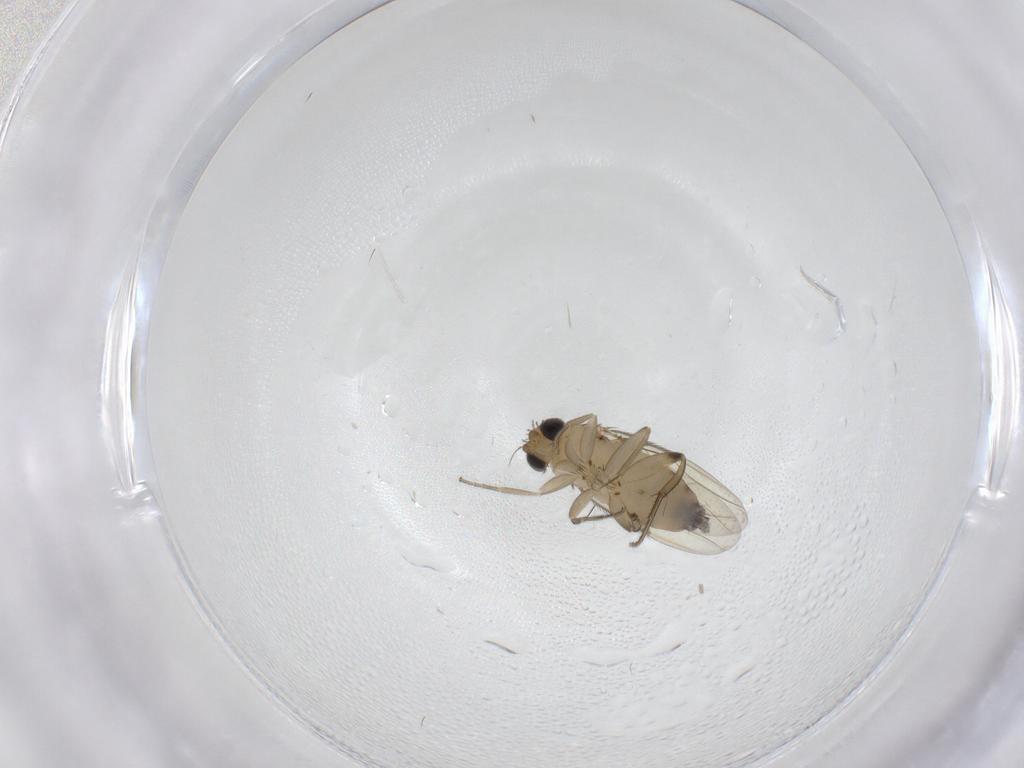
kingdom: Animalia
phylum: Arthropoda
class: Insecta
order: Diptera
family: Phoridae
